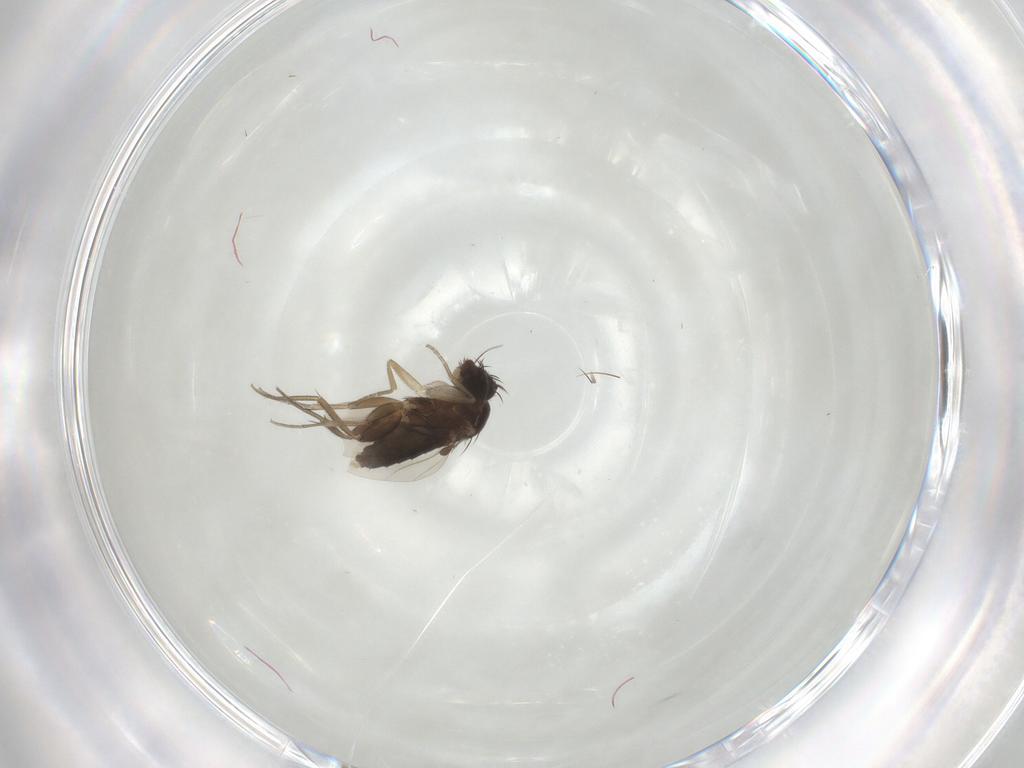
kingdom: Animalia
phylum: Arthropoda
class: Insecta
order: Diptera
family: Phoridae
